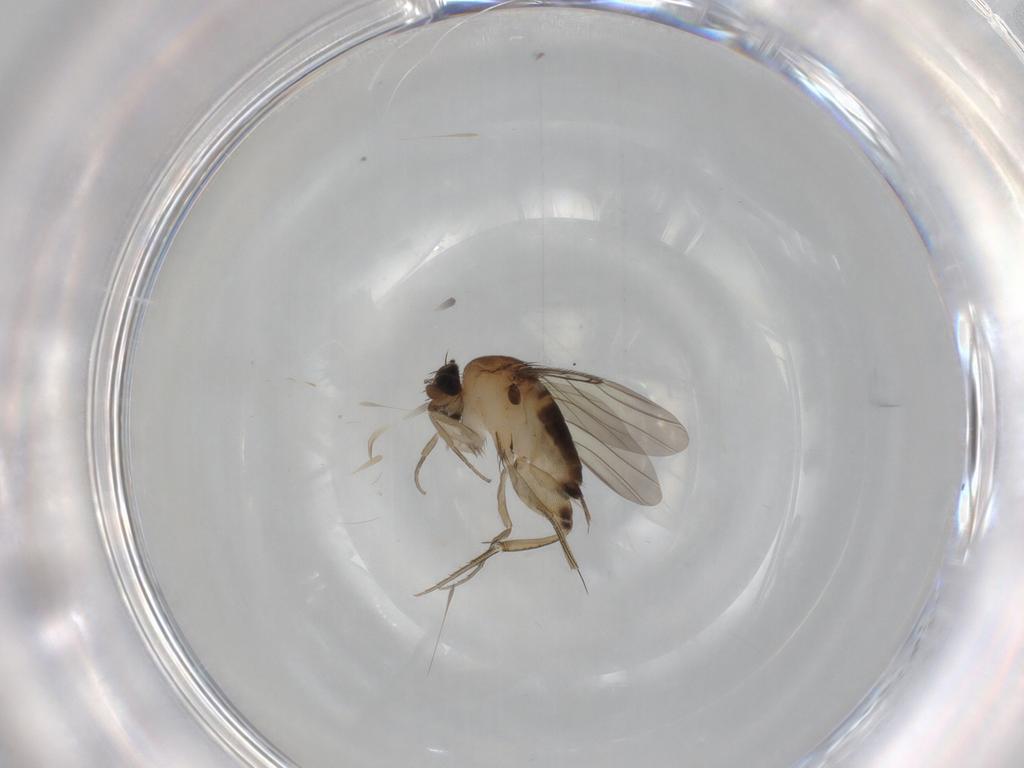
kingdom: Animalia
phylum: Arthropoda
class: Insecta
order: Diptera
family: Phoridae
